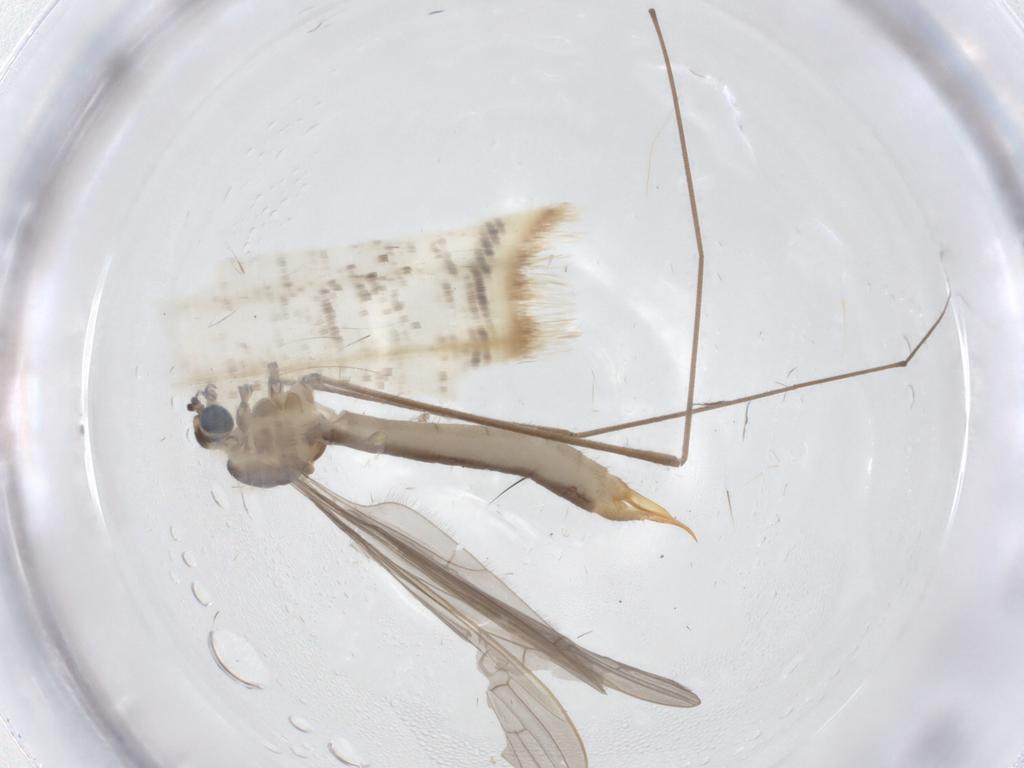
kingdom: Animalia
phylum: Arthropoda
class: Insecta
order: Diptera
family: Limoniidae
